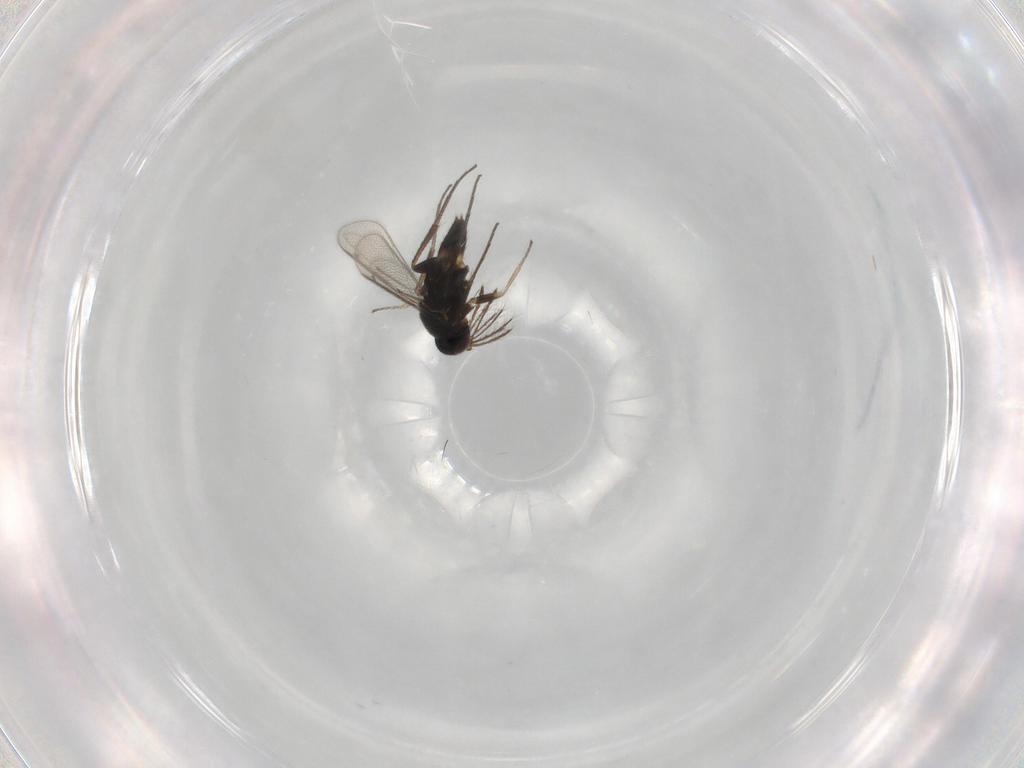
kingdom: Animalia
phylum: Arthropoda
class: Insecta
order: Hymenoptera
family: Eulophidae
